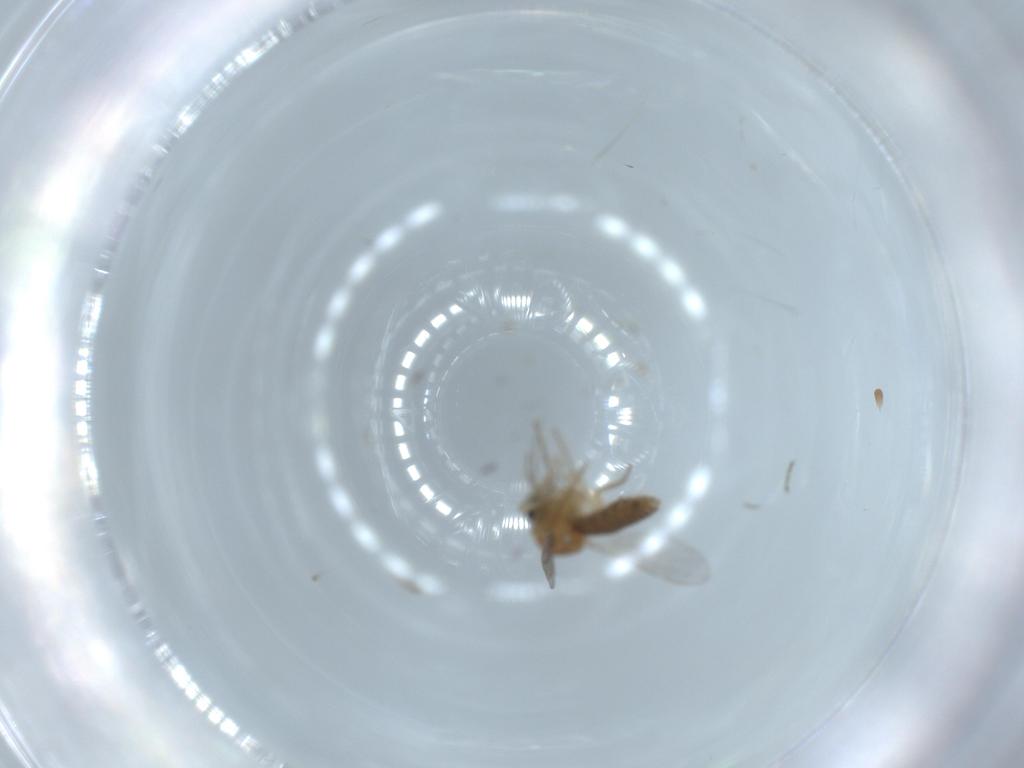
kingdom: Animalia
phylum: Arthropoda
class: Insecta
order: Diptera
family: Ceratopogonidae
